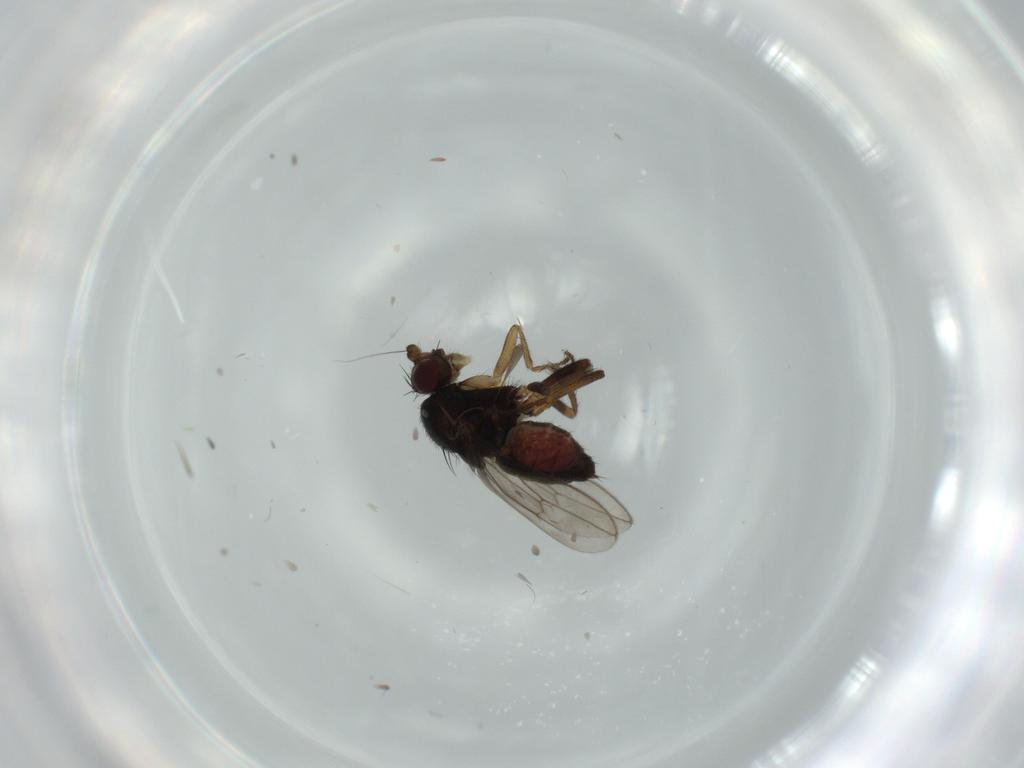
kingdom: Animalia
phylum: Arthropoda
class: Insecta
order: Diptera
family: Sphaeroceridae
